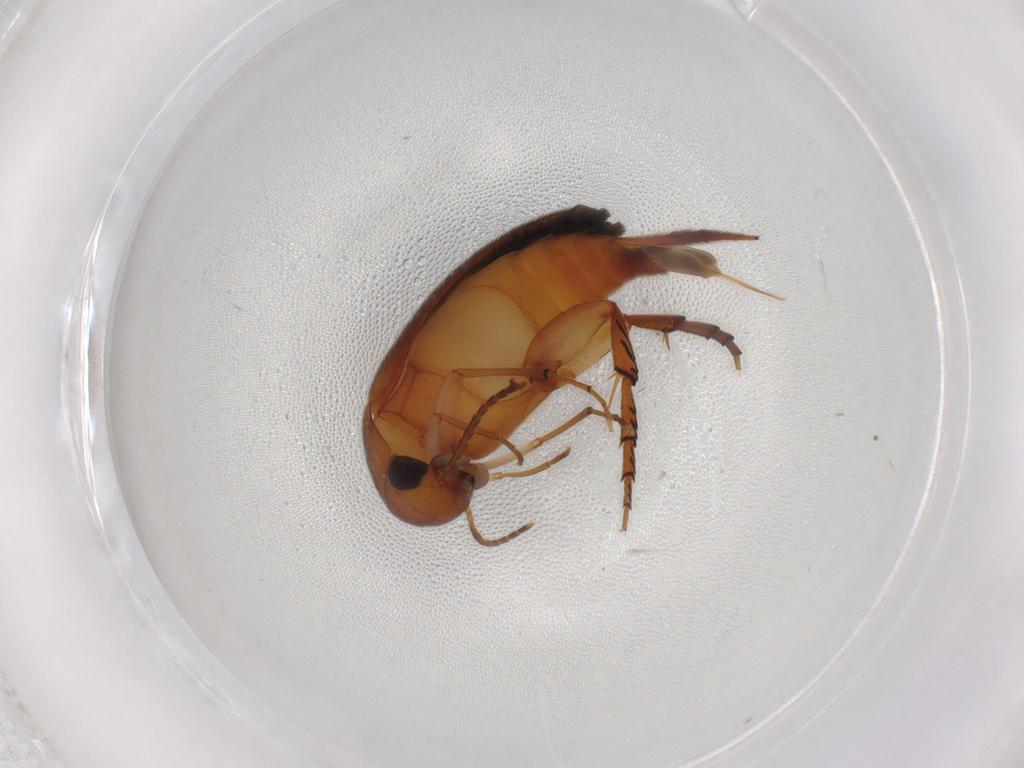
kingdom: Animalia
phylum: Arthropoda
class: Insecta
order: Coleoptera
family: Mordellidae
